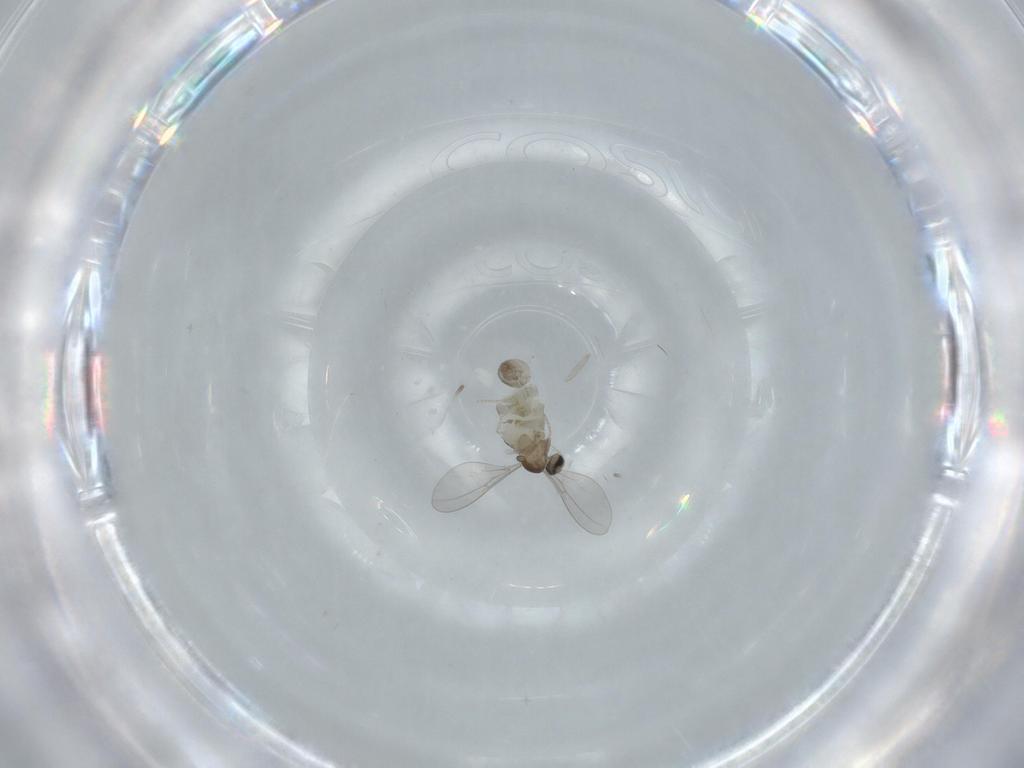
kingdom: Animalia
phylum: Arthropoda
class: Insecta
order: Diptera
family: Cecidomyiidae
